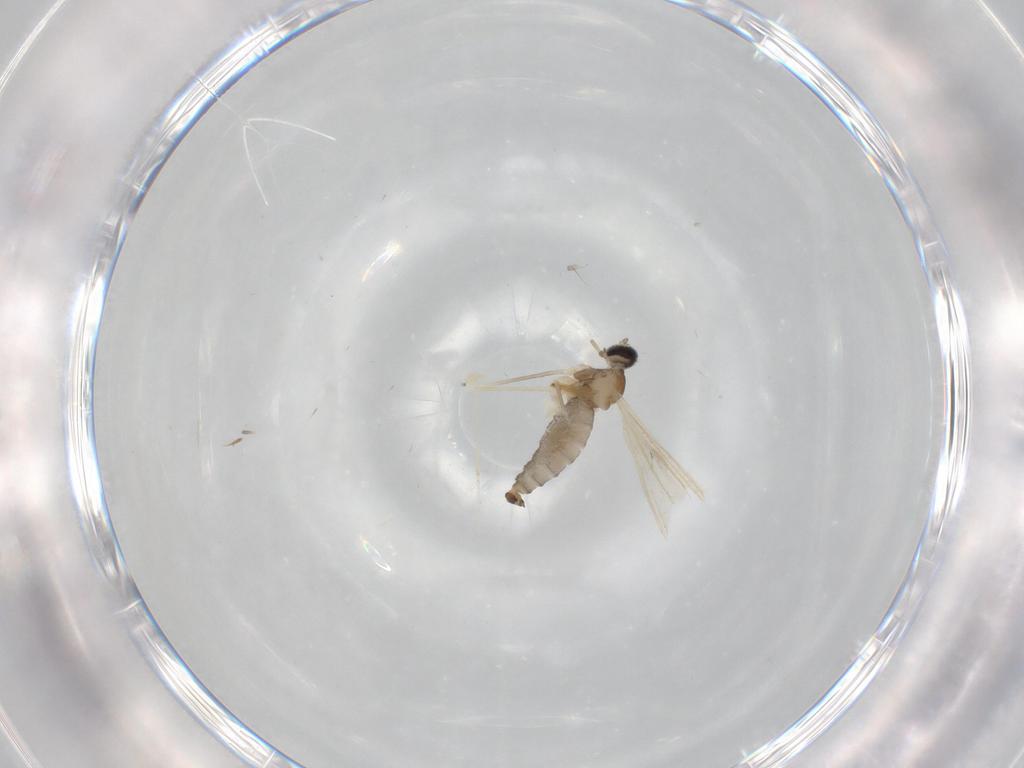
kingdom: Animalia
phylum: Arthropoda
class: Insecta
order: Diptera
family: Cecidomyiidae
